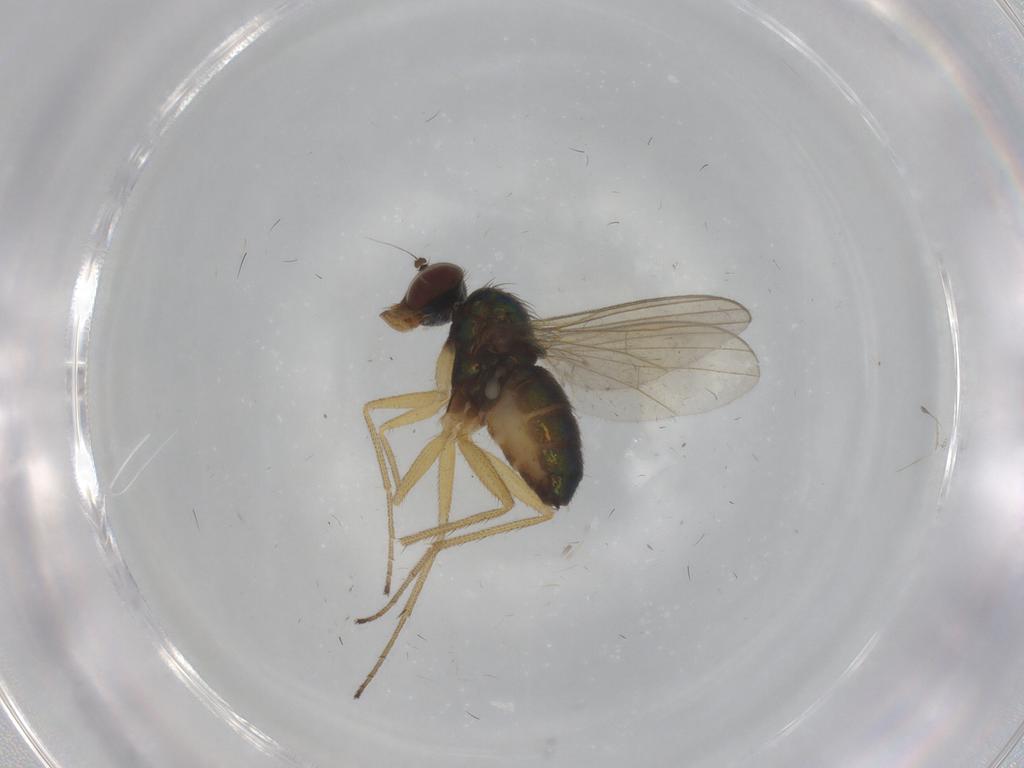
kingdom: Animalia
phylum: Arthropoda
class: Insecta
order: Diptera
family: Dolichopodidae
